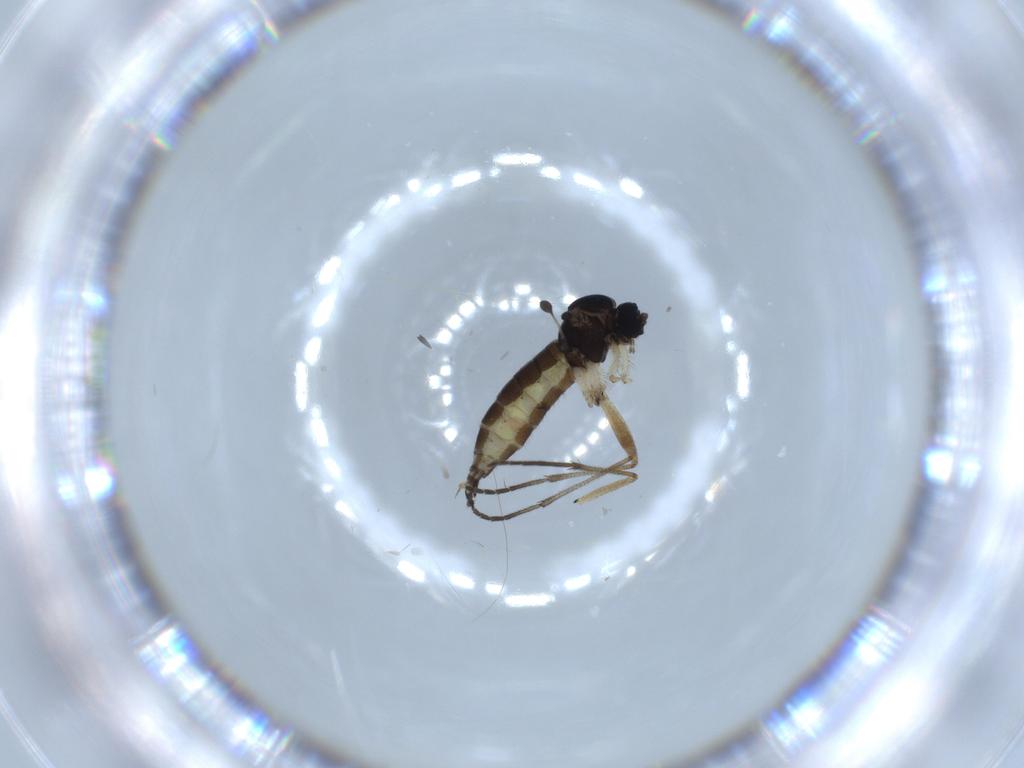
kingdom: Animalia
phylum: Arthropoda
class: Insecta
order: Diptera
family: Sciaridae
